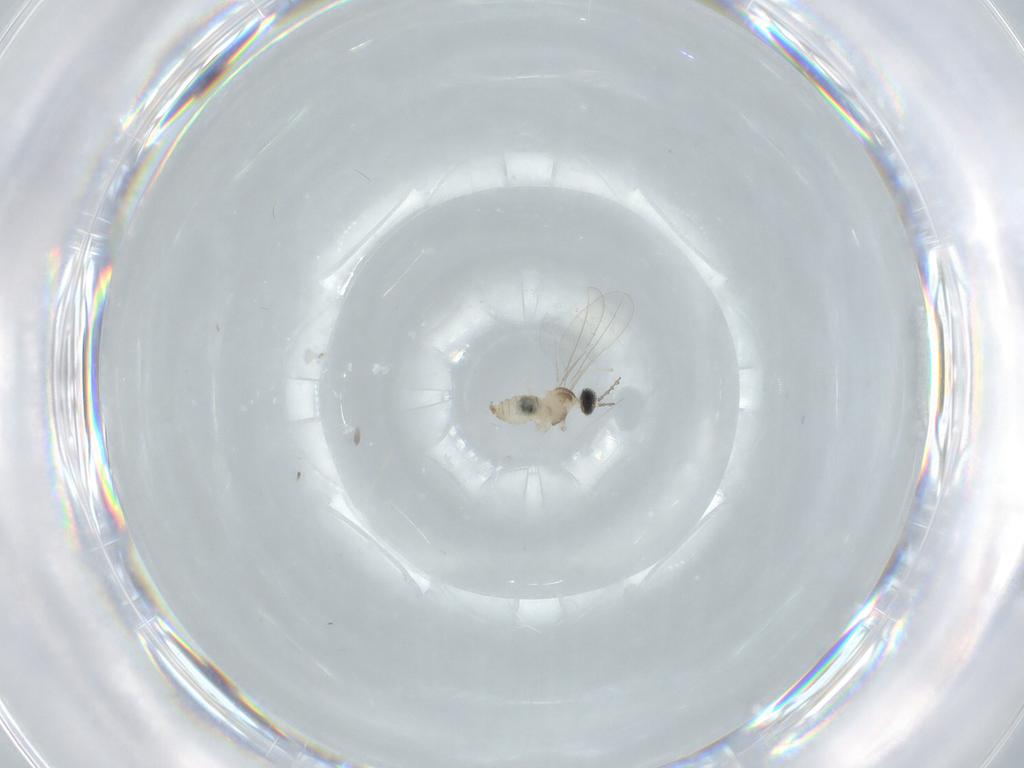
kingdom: Animalia
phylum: Arthropoda
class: Insecta
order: Diptera
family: Cecidomyiidae
